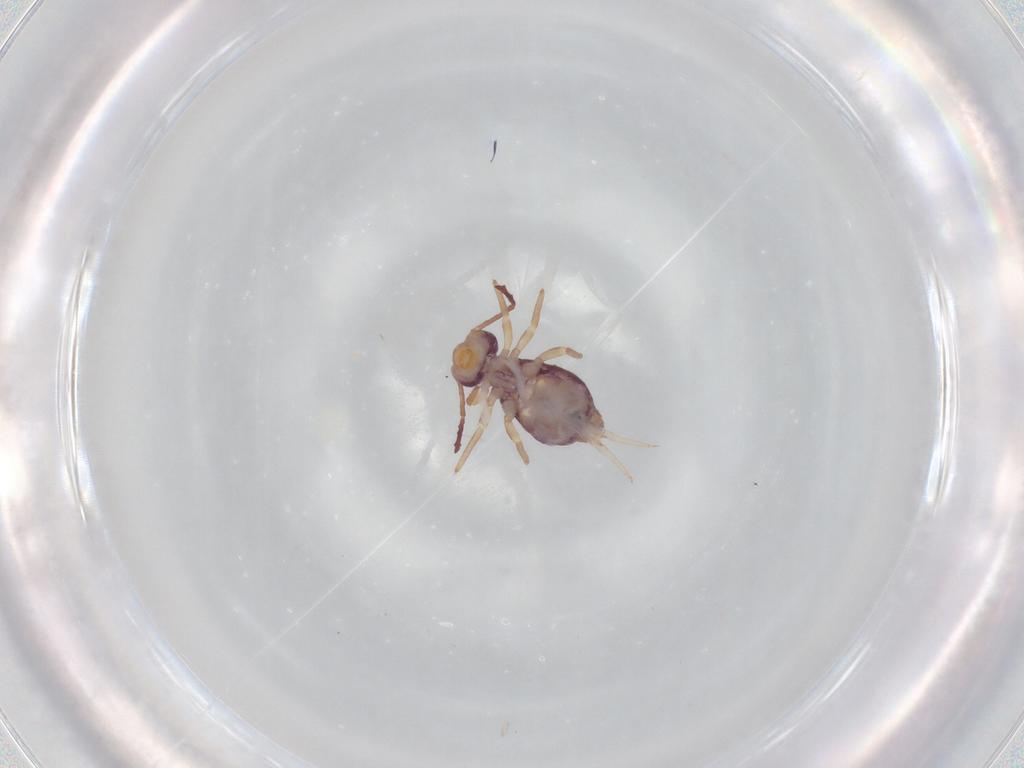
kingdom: Animalia
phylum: Arthropoda
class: Collembola
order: Symphypleona
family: Dicyrtomidae
